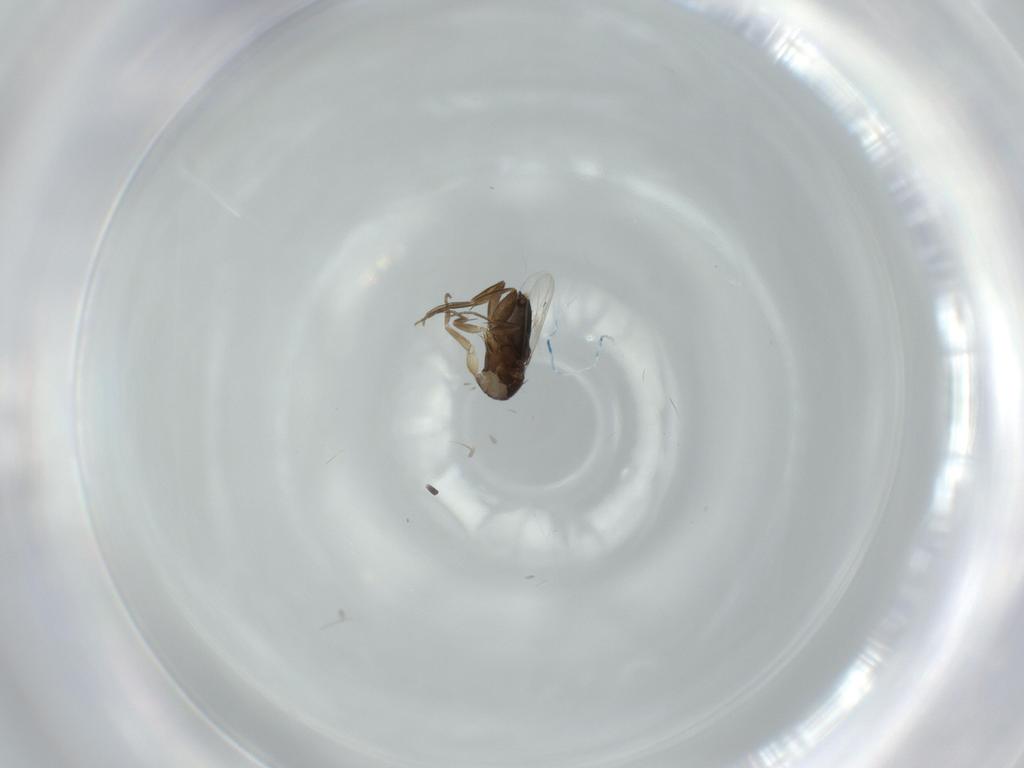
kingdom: Animalia
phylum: Arthropoda
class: Insecta
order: Diptera
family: Phoridae
